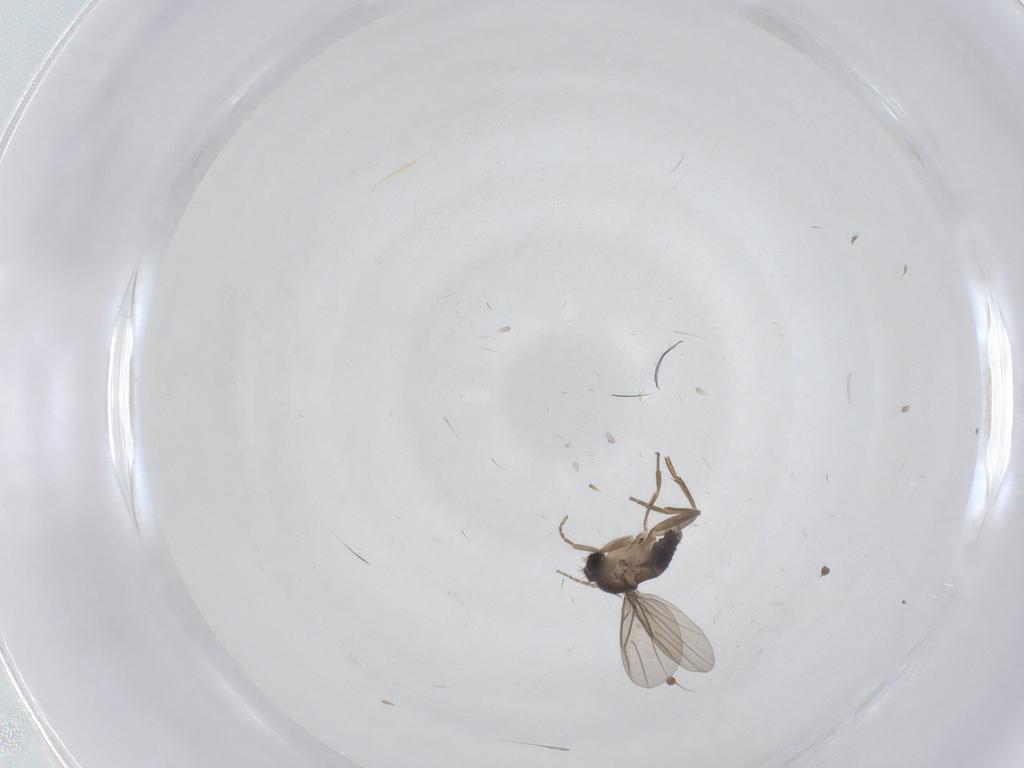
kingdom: Animalia
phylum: Arthropoda
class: Insecta
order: Diptera
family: Phoridae
